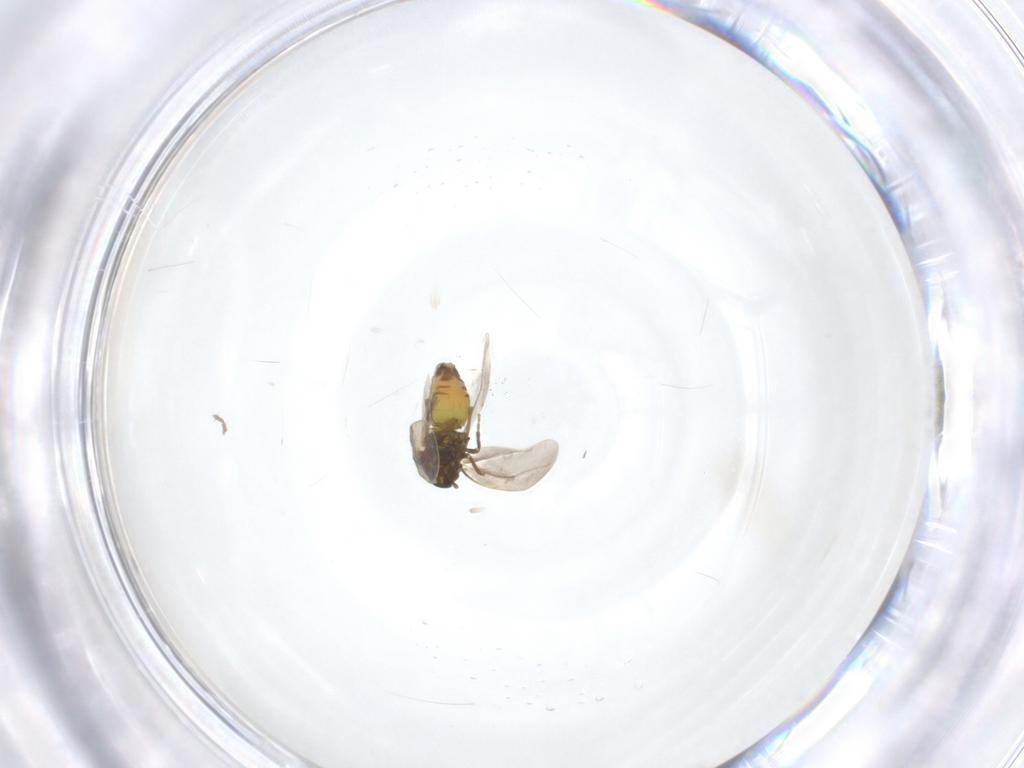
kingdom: Animalia
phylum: Arthropoda
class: Insecta
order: Hemiptera
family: Aleyrodidae
